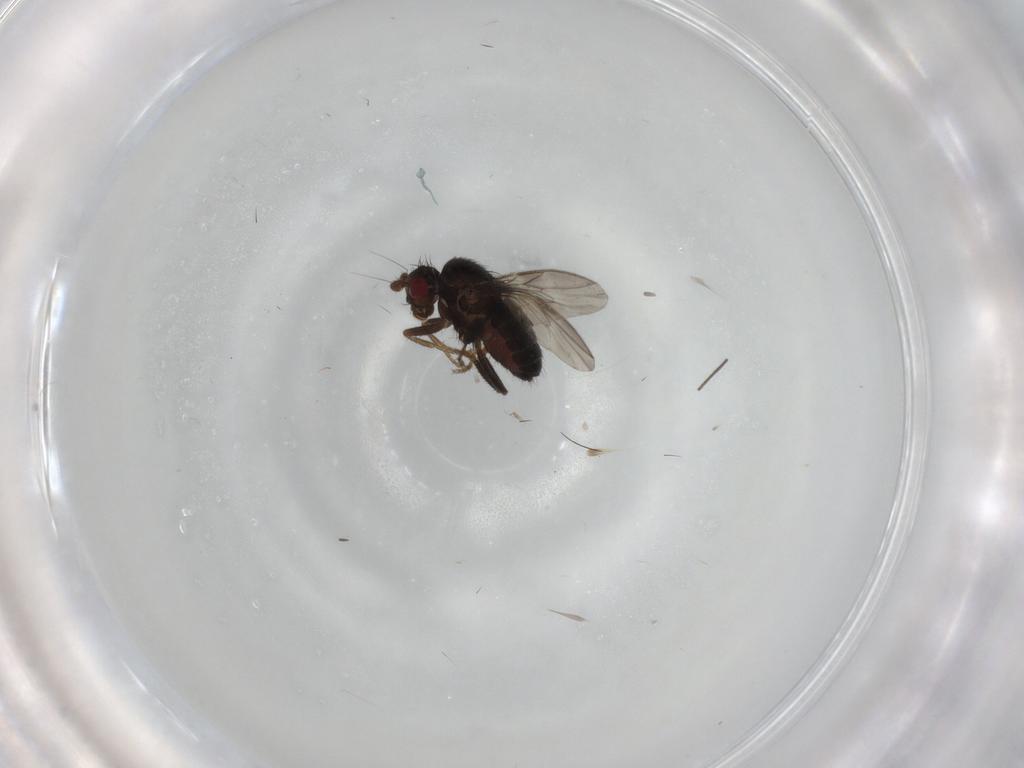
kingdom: Animalia
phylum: Arthropoda
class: Insecta
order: Diptera
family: Sphaeroceridae
